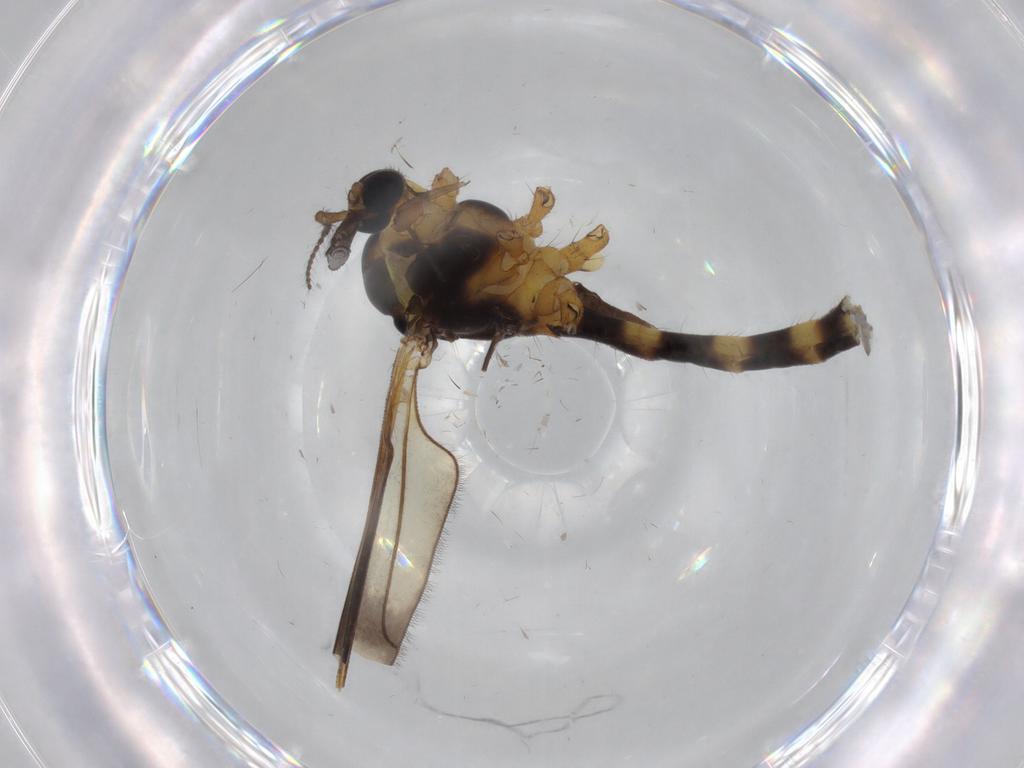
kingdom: Animalia
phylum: Arthropoda
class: Insecta
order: Diptera
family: Limoniidae
